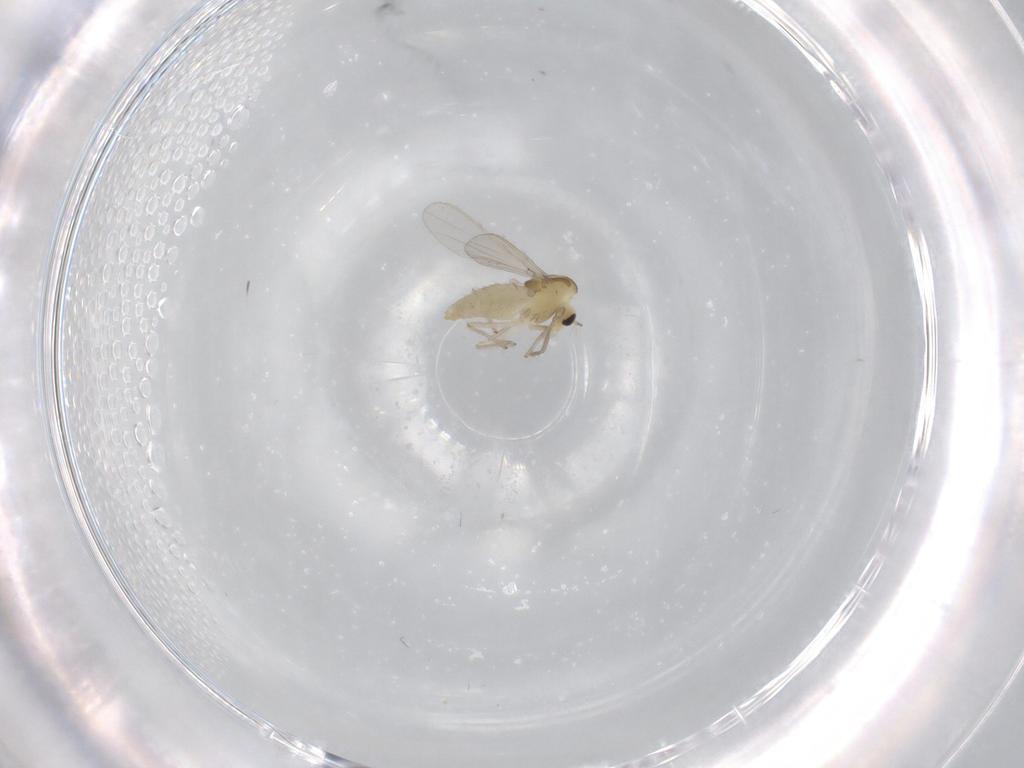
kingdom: Animalia
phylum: Arthropoda
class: Insecta
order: Diptera
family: Chironomidae
